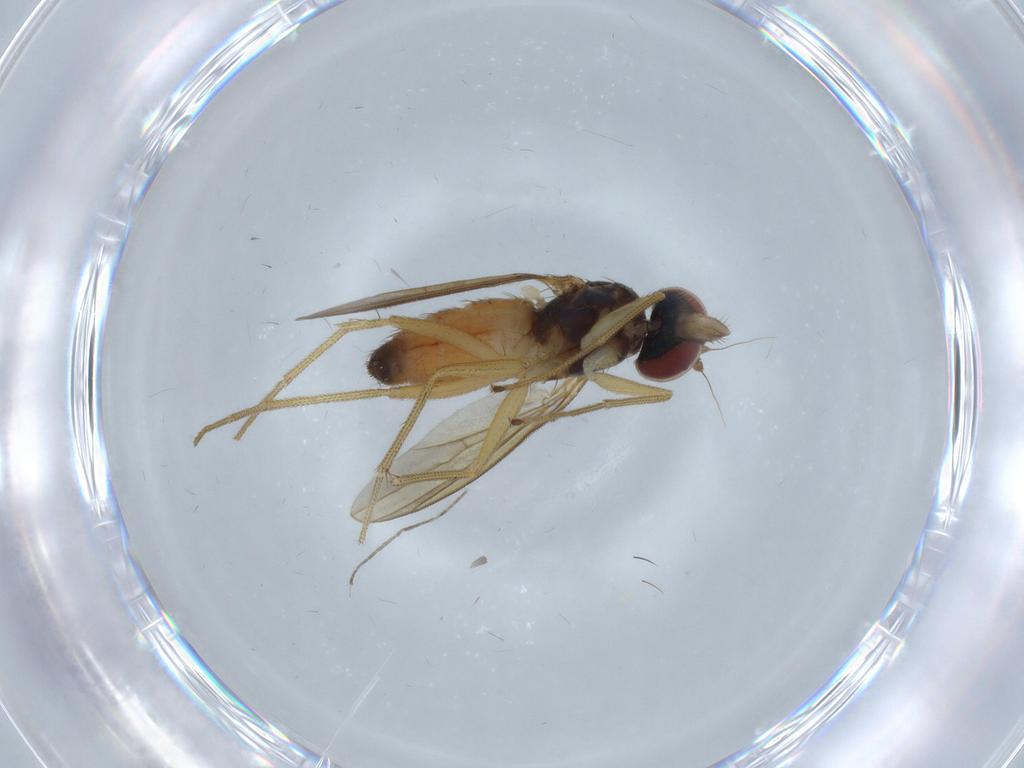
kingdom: Animalia
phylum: Arthropoda
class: Insecta
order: Diptera
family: Dolichopodidae
